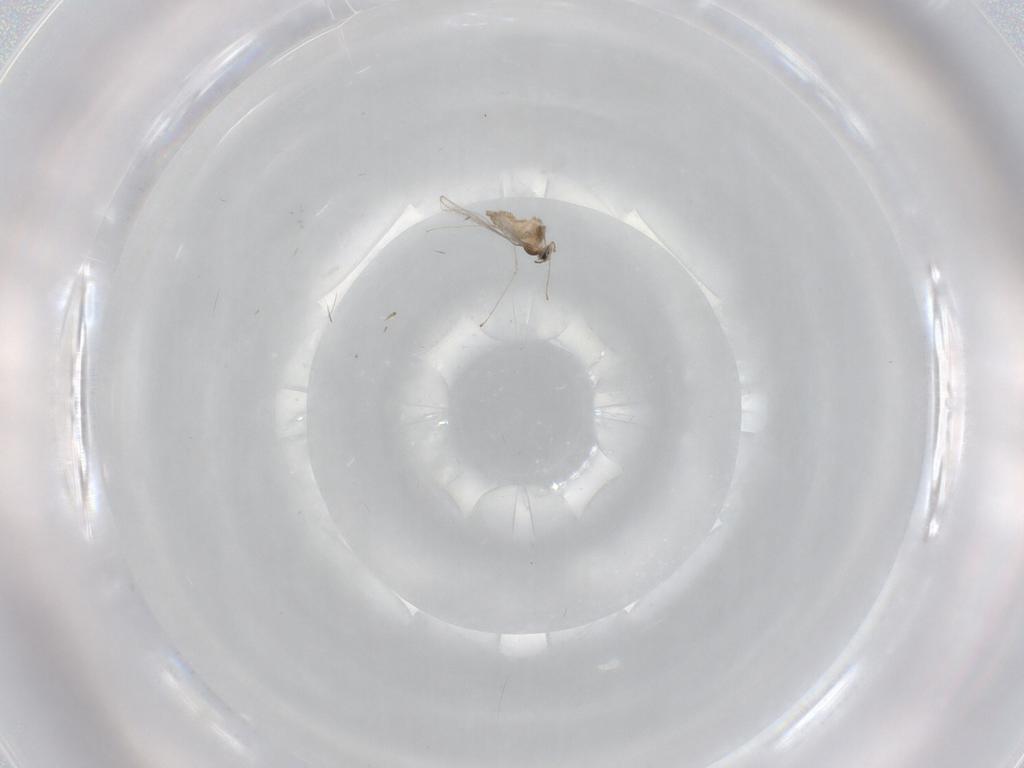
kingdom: Animalia
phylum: Arthropoda
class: Insecta
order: Diptera
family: Cecidomyiidae
